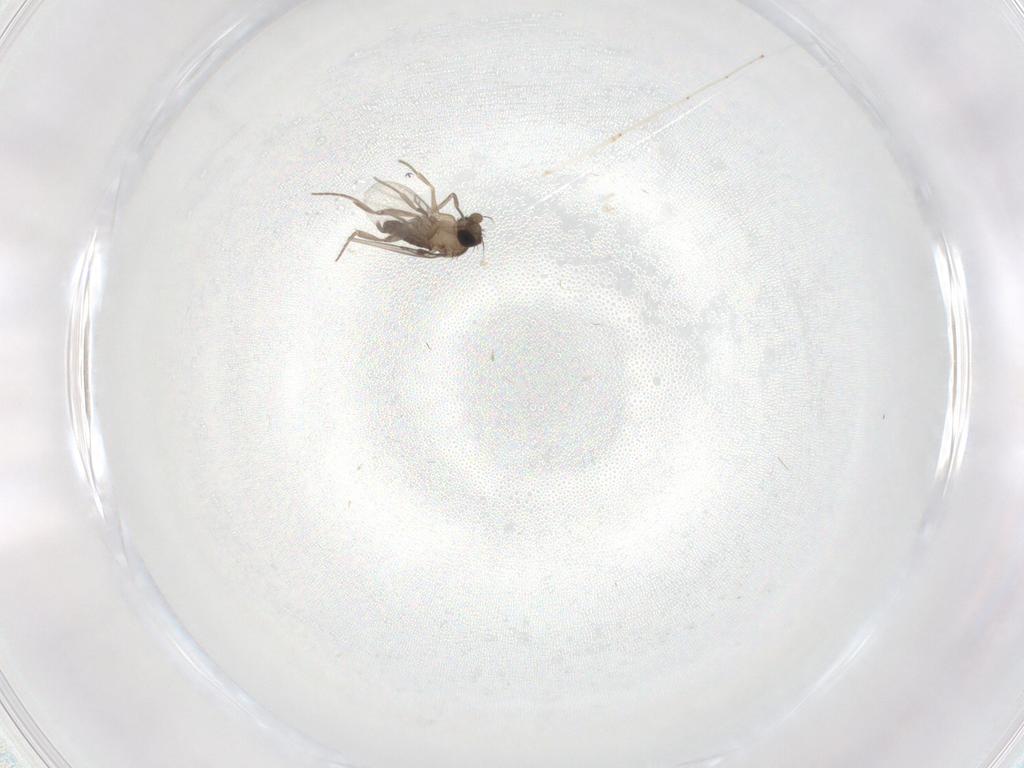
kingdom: Animalia
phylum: Arthropoda
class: Insecta
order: Diptera
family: Cecidomyiidae
